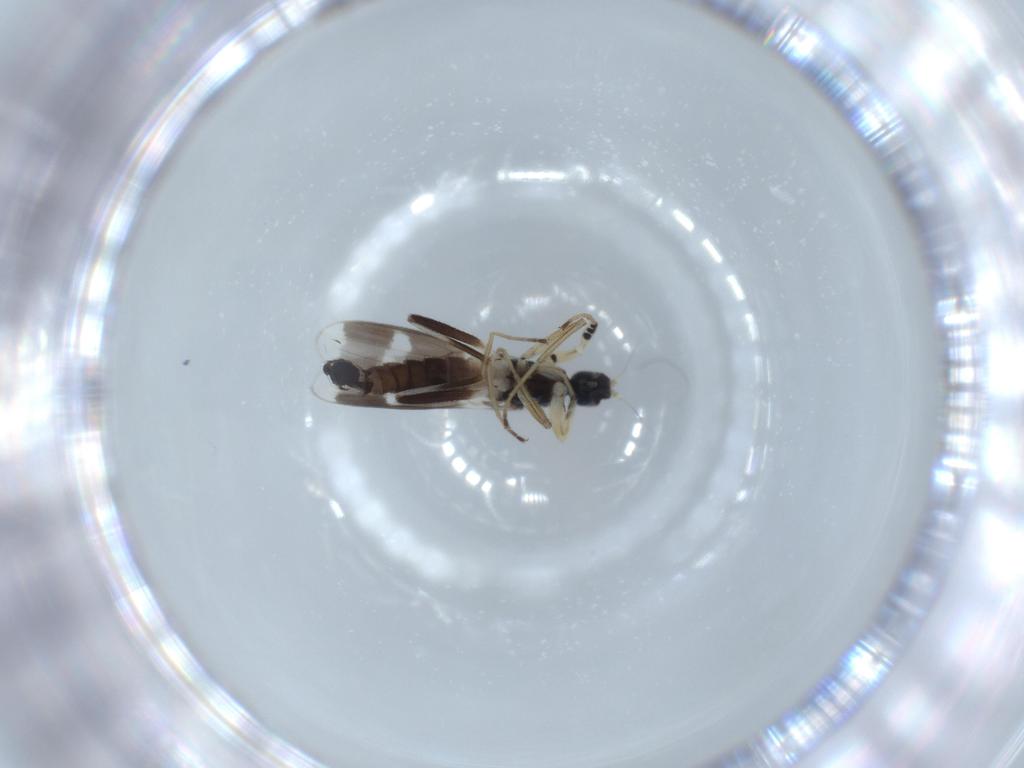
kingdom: Animalia
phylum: Arthropoda
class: Insecta
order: Diptera
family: Hybotidae
